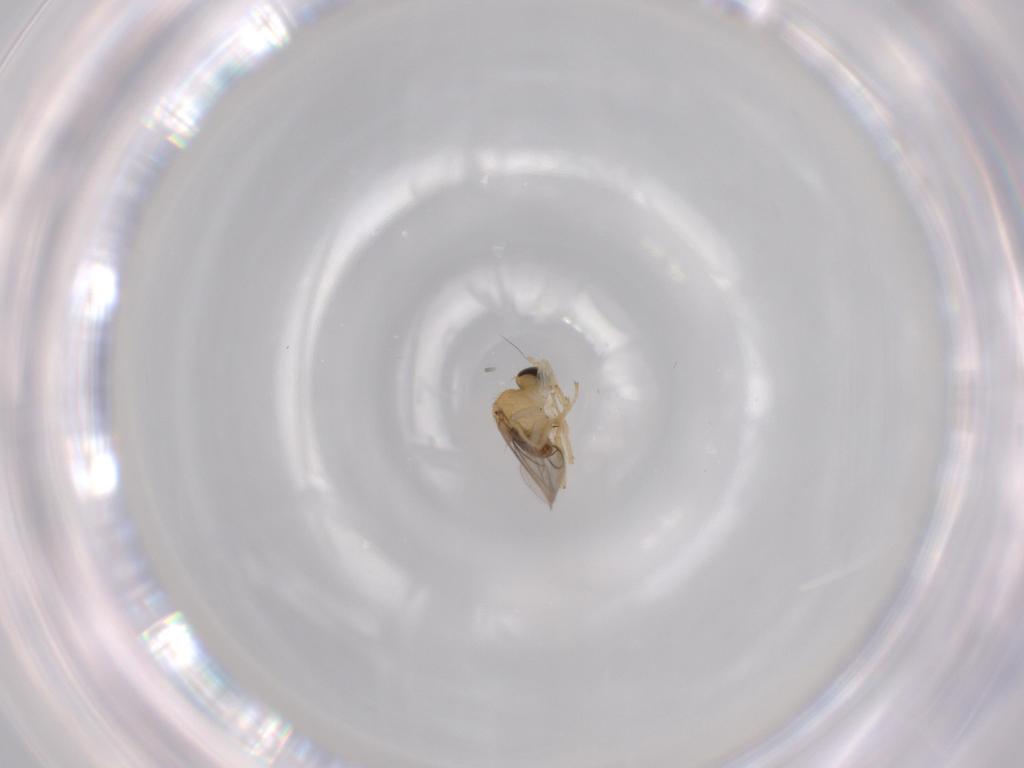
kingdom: Animalia
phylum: Arthropoda
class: Insecta
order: Diptera
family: Hybotidae
